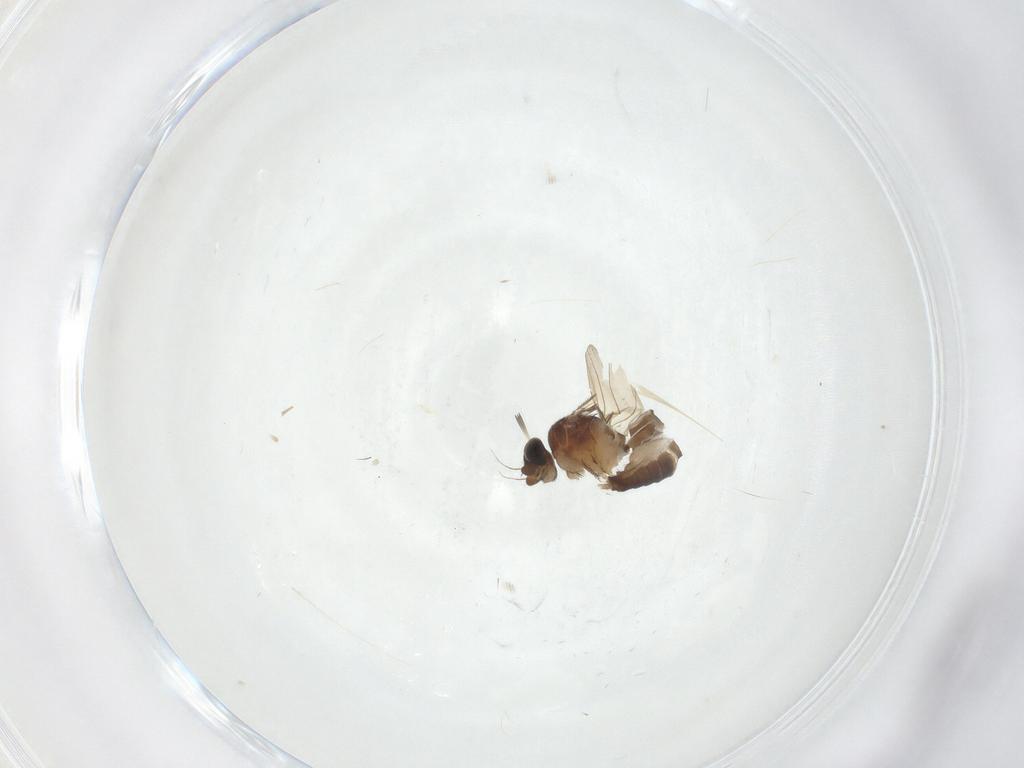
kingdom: Animalia
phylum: Arthropoda
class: Insecta
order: Diptera
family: Phoridae
